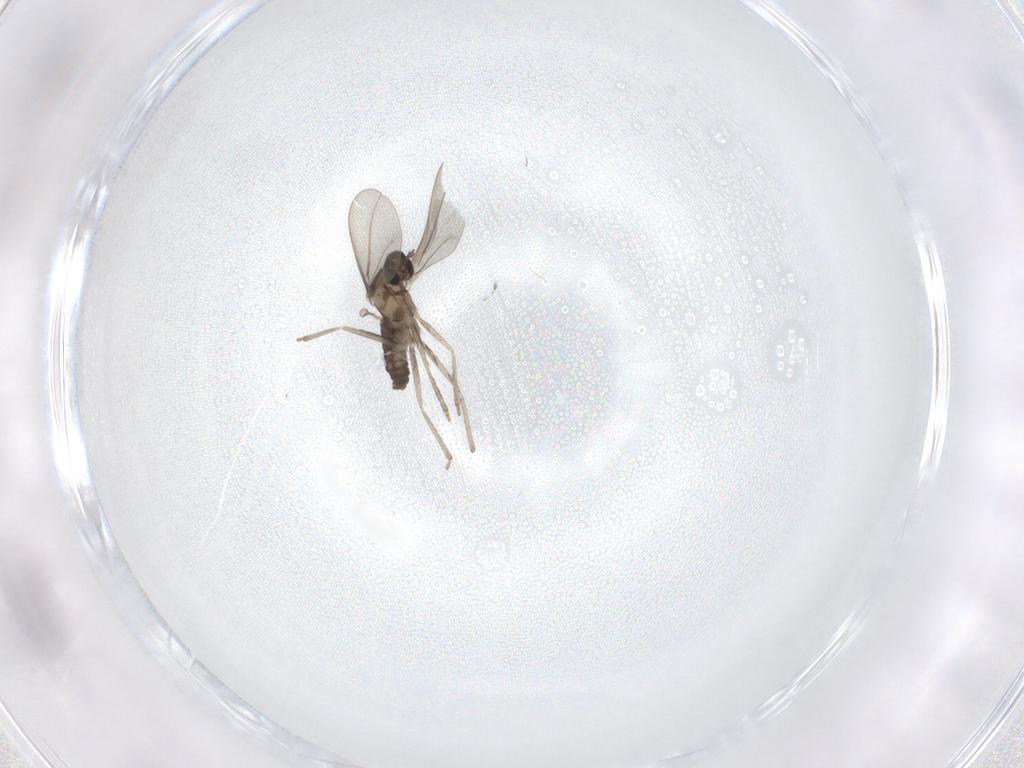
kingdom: Animalia
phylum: Arthropoda
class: Insecta
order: Diptera
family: Cecidomyiidae
